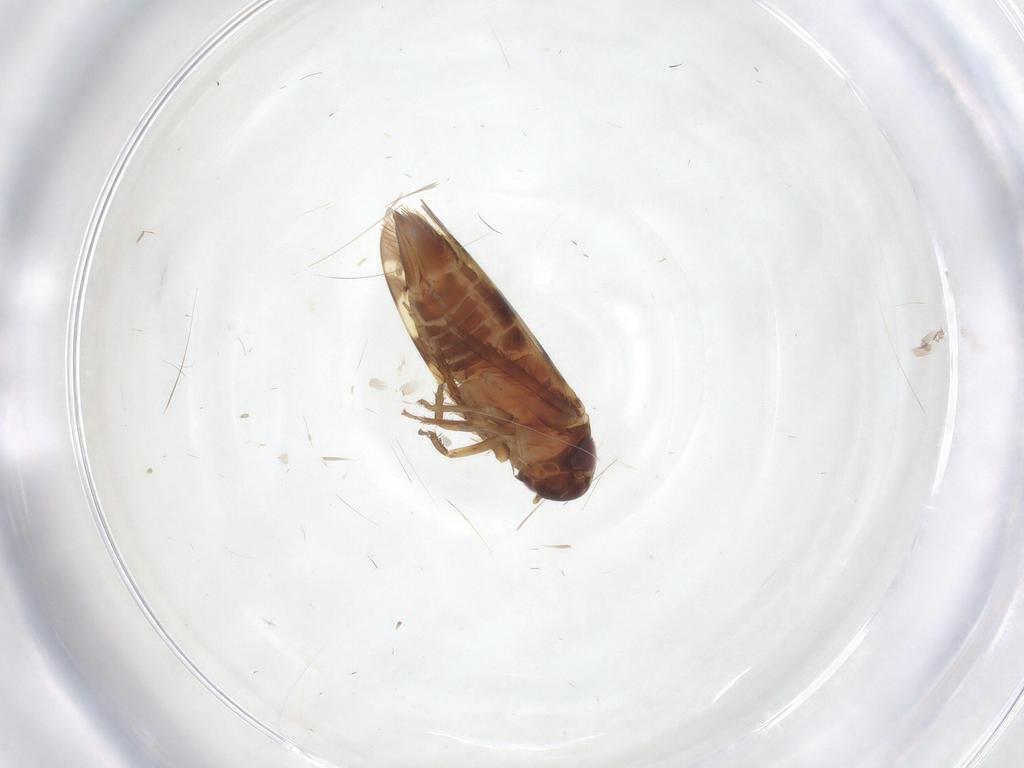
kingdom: Animalia
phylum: Arthropoda
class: Insecta
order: Hemiptera
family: Cicadellidae
